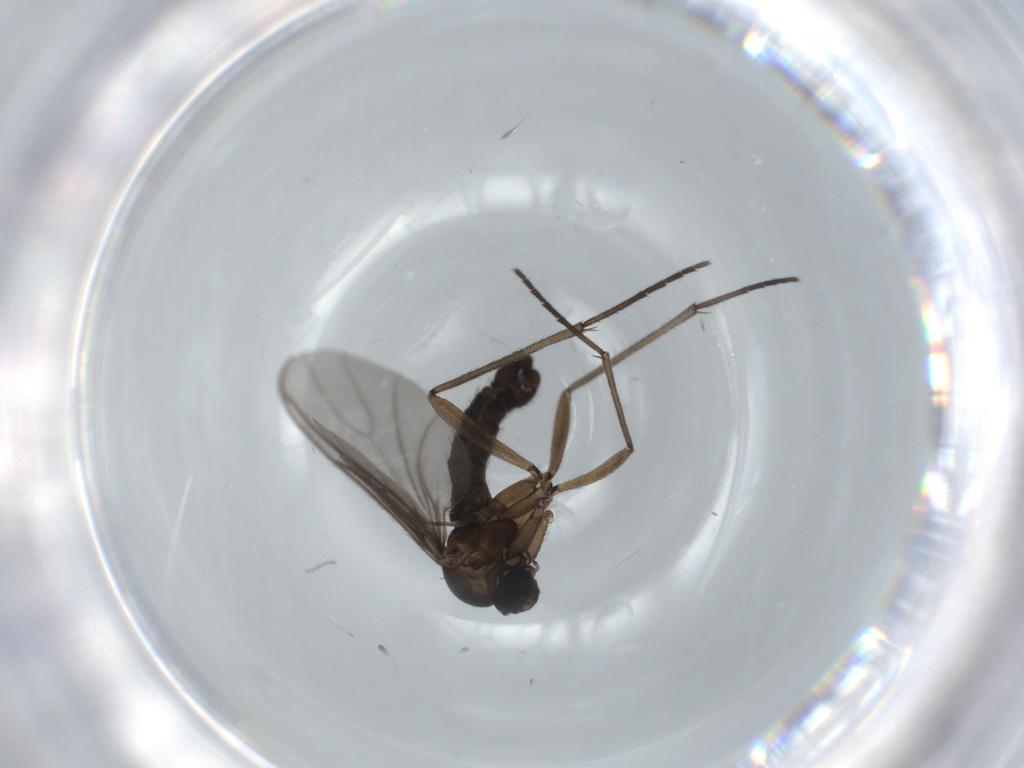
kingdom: Animalia
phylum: Arthropoda
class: Insecta
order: Diptera
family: Sciaridae
